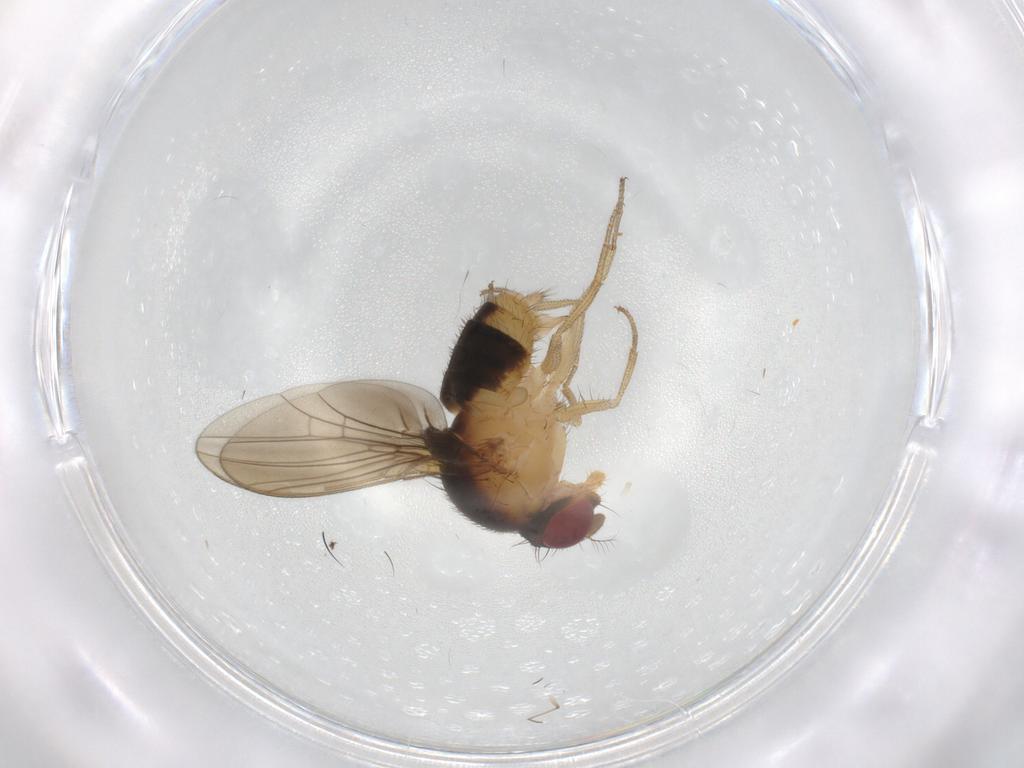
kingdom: Animalia
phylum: Arthropoda
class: Insecta
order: Diptera
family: Drosophilidae
